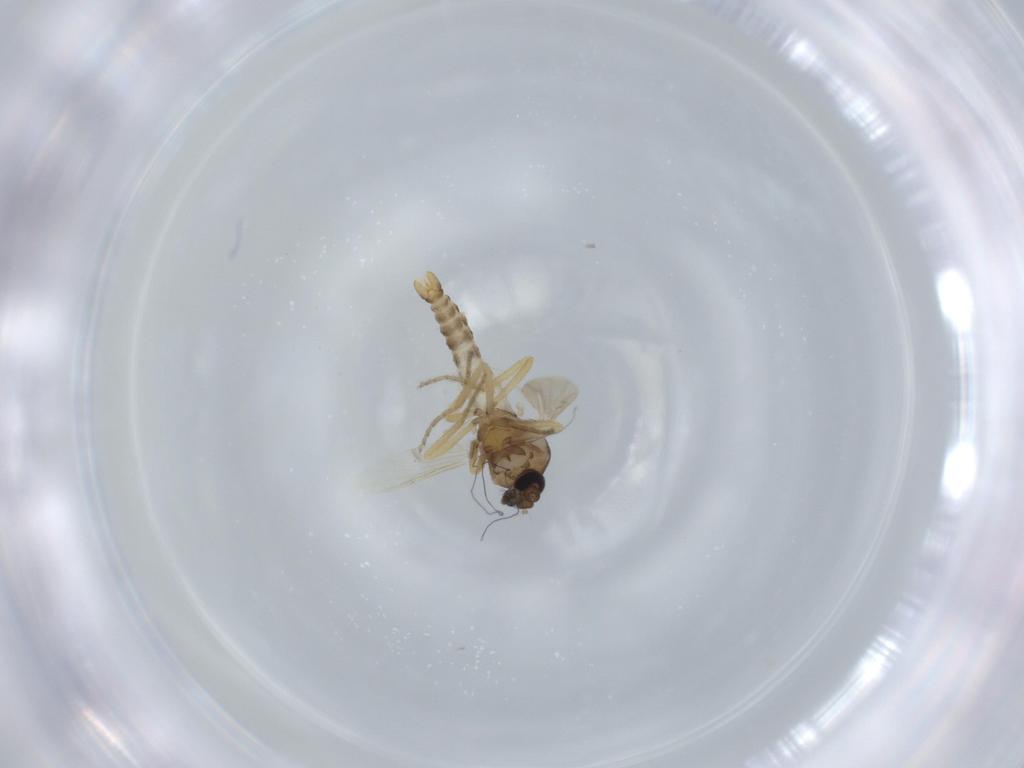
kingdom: Animalia
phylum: Arthropoda
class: Insecta
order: Diptera
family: Ceratopogonidae
